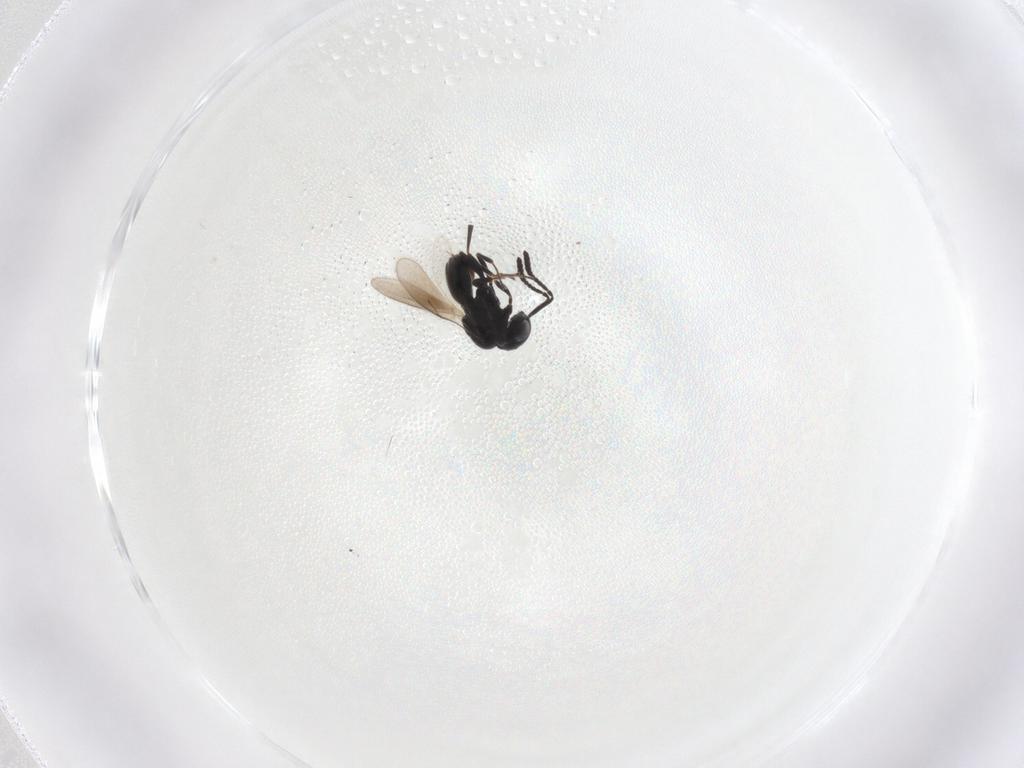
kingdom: Animalia
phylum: Arthropoda
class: Insecta
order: Hymenoptera
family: Scelionidae
